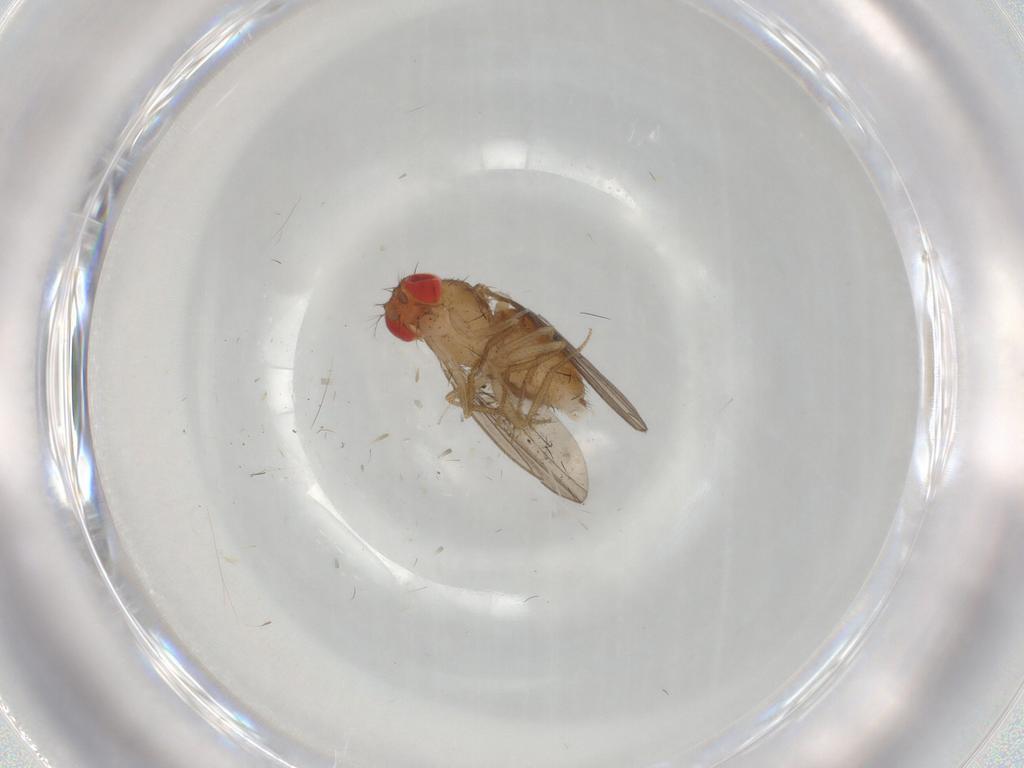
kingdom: Animalia
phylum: Arthropoda
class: Insecta
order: Diptera
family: Drosophilidae
